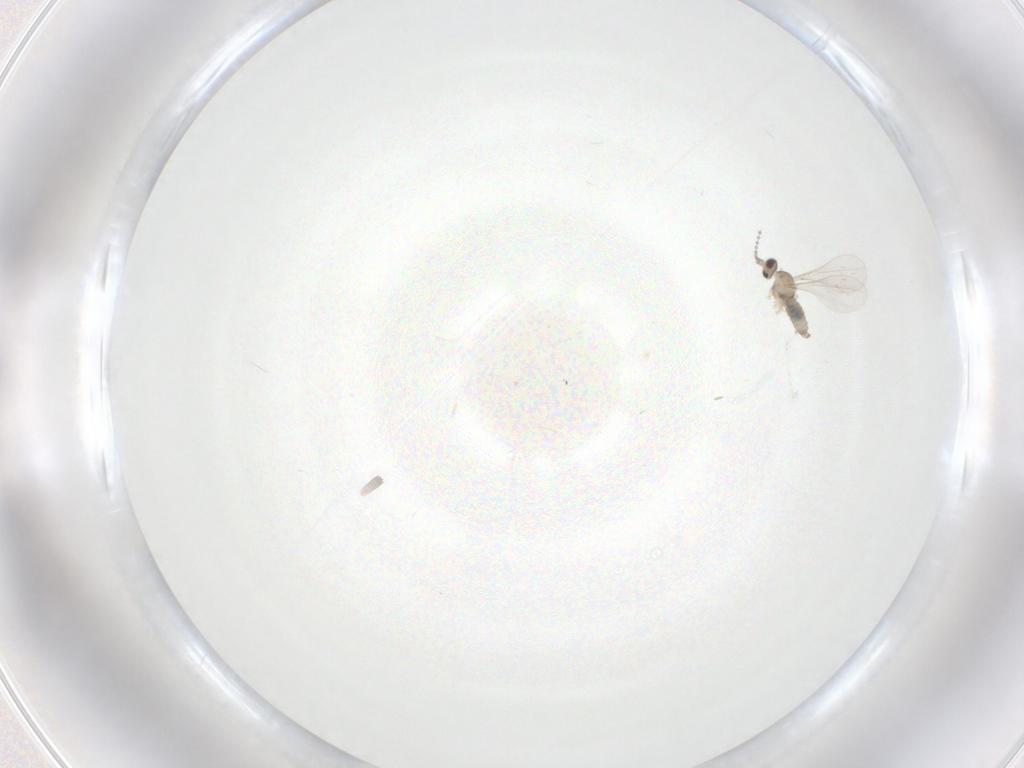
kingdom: Animalia
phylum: Arthropoda
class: Insecta
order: Diptera
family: Cecidomyiidae
